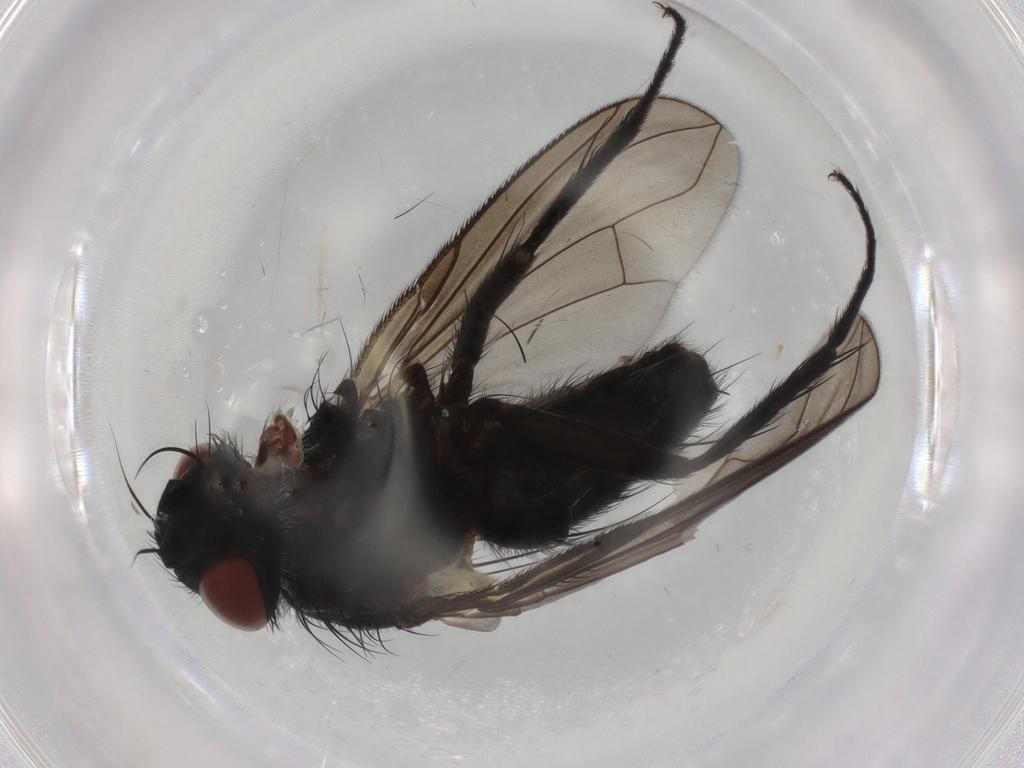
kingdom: Animalia
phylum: Arthropoda
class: Insecta
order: Diptera
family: Tachinidae
